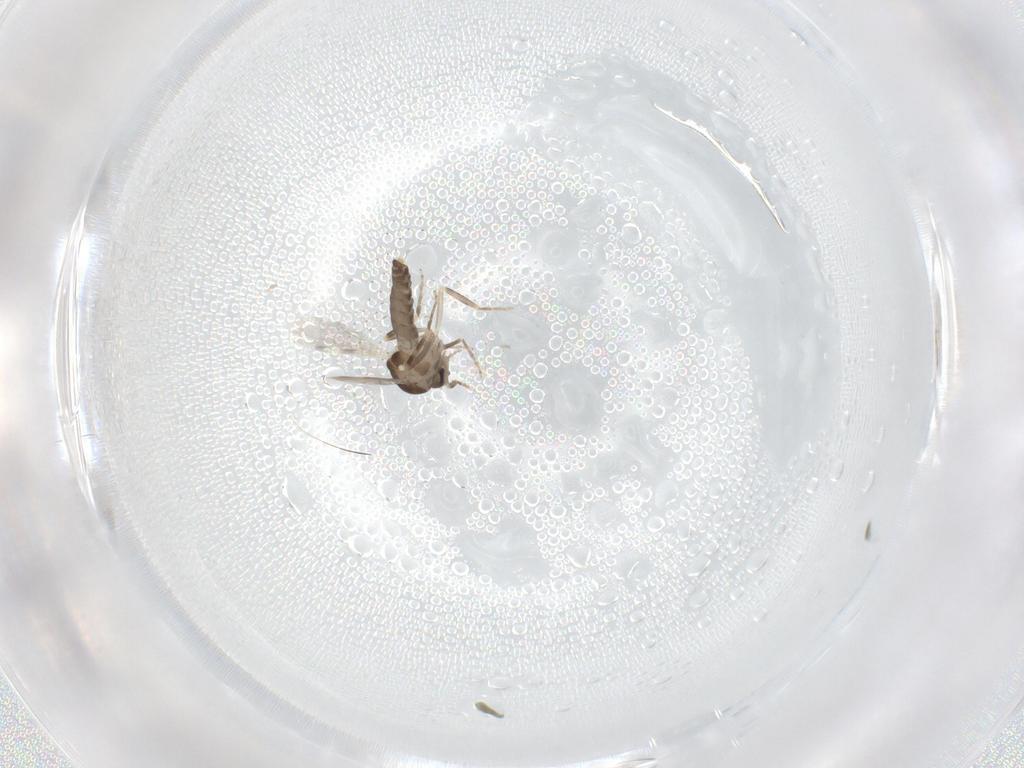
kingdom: Animalia
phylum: Arthropoda
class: Insecta
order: Diptera
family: Ceratopogonidae
